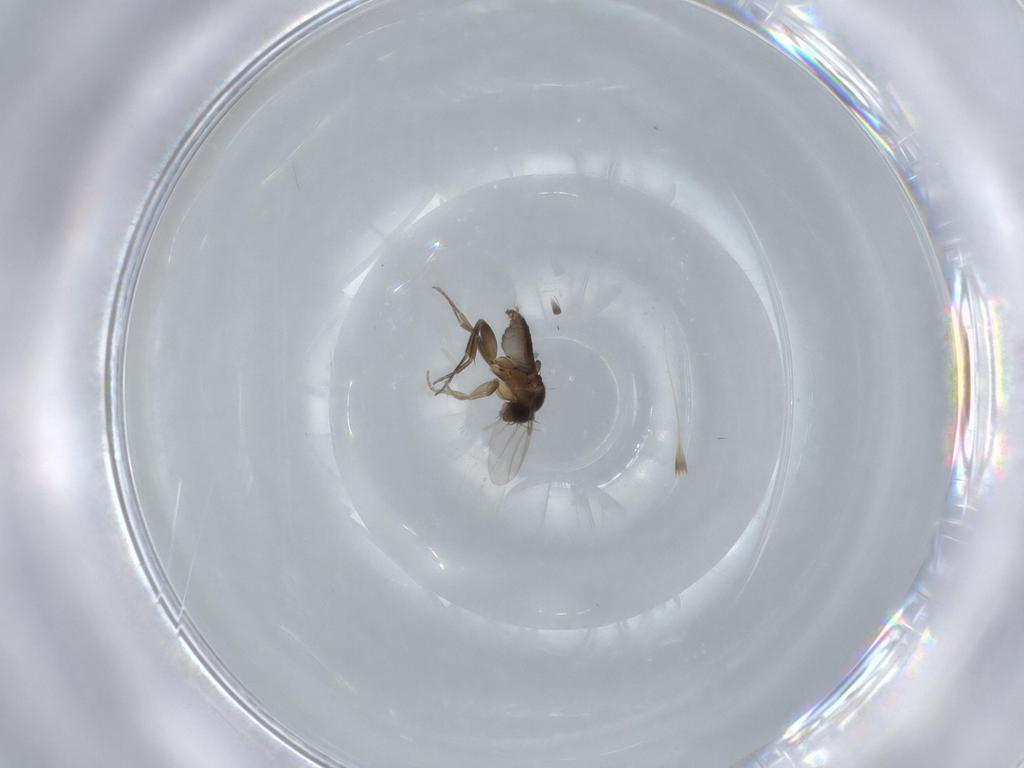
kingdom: Animalia
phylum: Arthropoda
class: Insecta
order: Diptera
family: Phoridae
